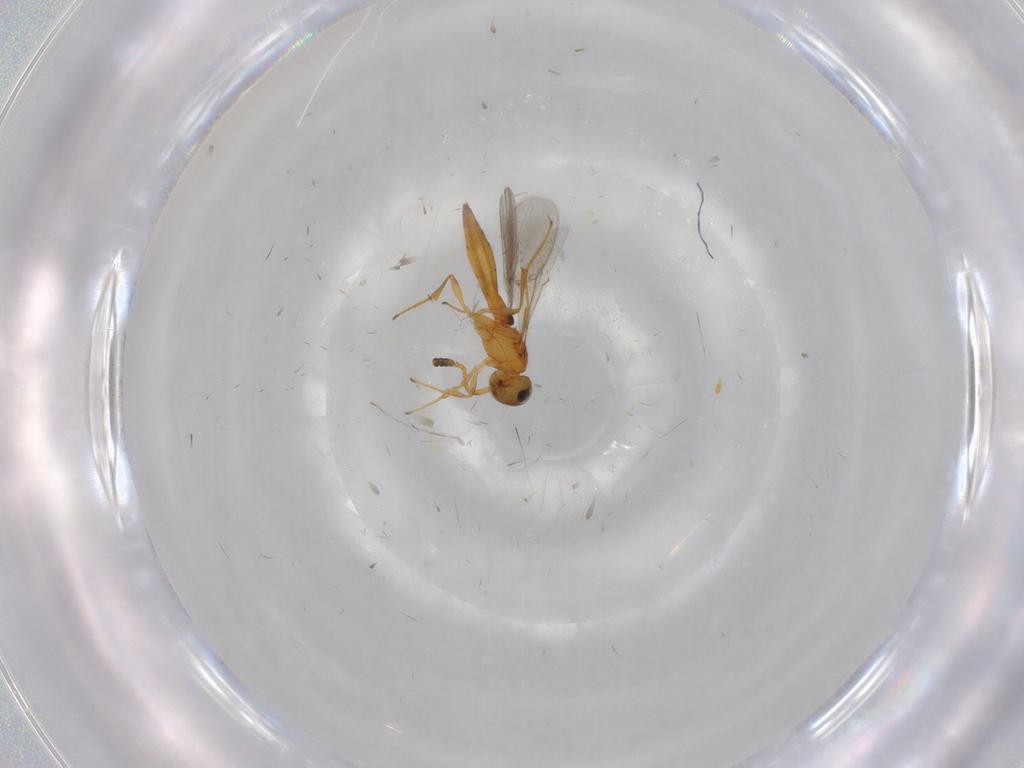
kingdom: Animalia
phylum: Arthropoda
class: Insecta
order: Hymenoptera
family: Scelionidae
